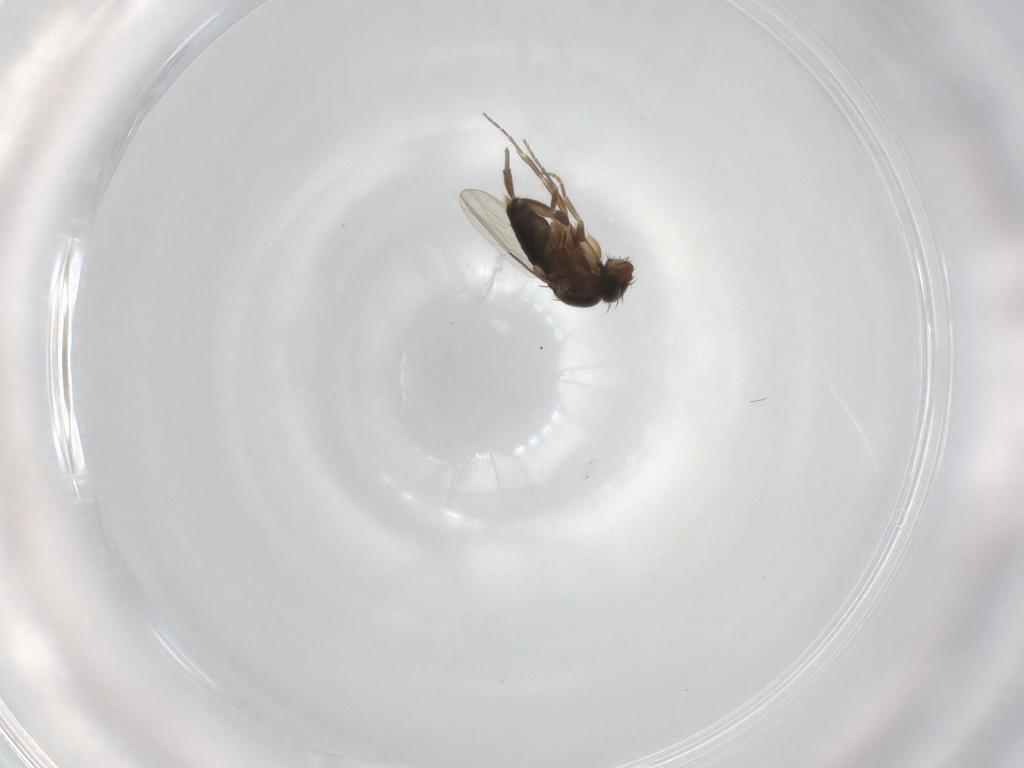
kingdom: Animalia
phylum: Arthropoda
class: Insecta
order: Diptera
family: Phoridae
